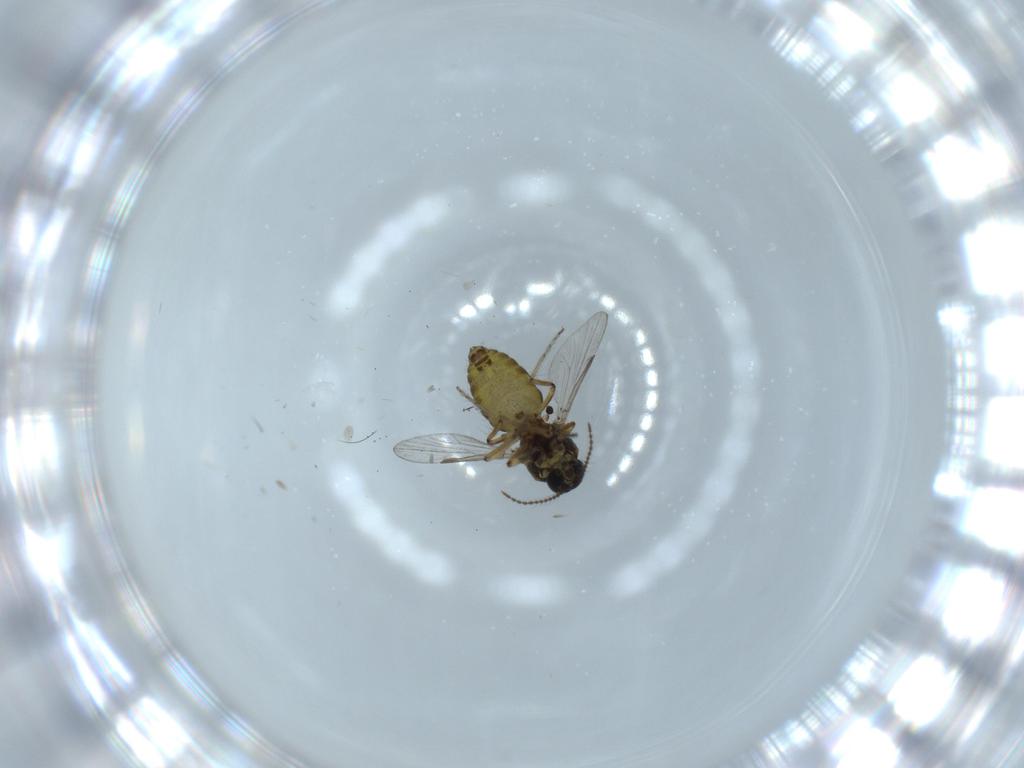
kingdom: Animalia
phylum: Arthropoda
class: Insecta
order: Diptera
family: Ceratopogonidae
